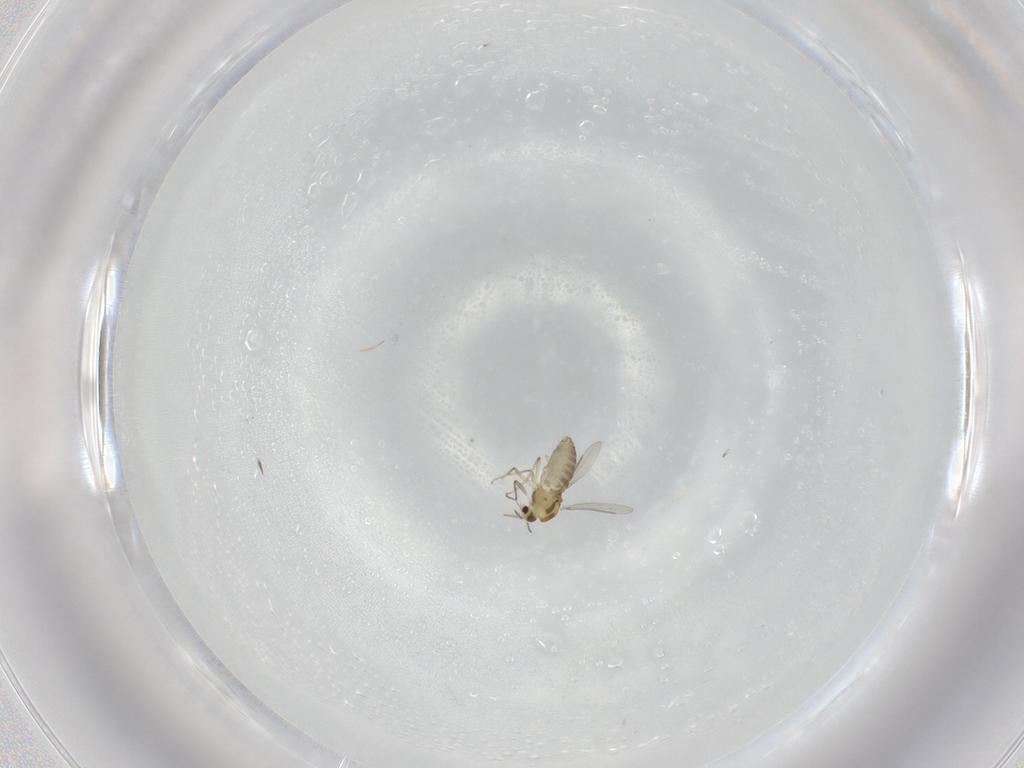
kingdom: Animalia
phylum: Arthropoda
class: Insecta
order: Diptera
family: Chironomidae
